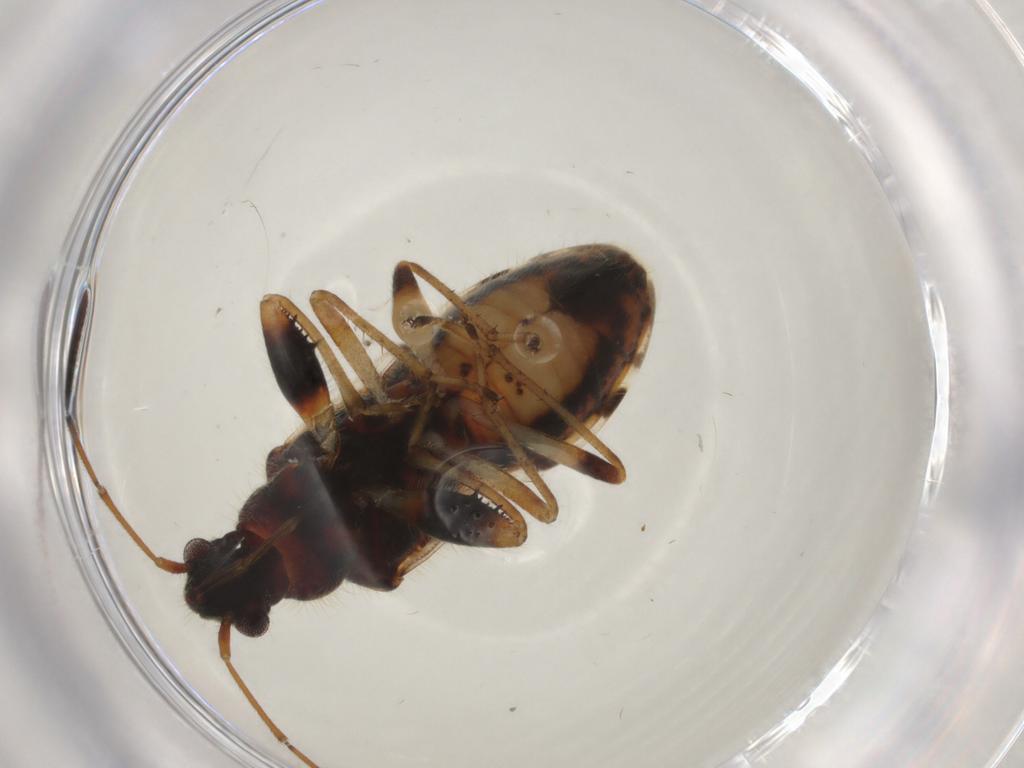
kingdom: Animalia
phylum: Arthropoda
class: Insecta
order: Hemiptera
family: Rhyparochromidae
